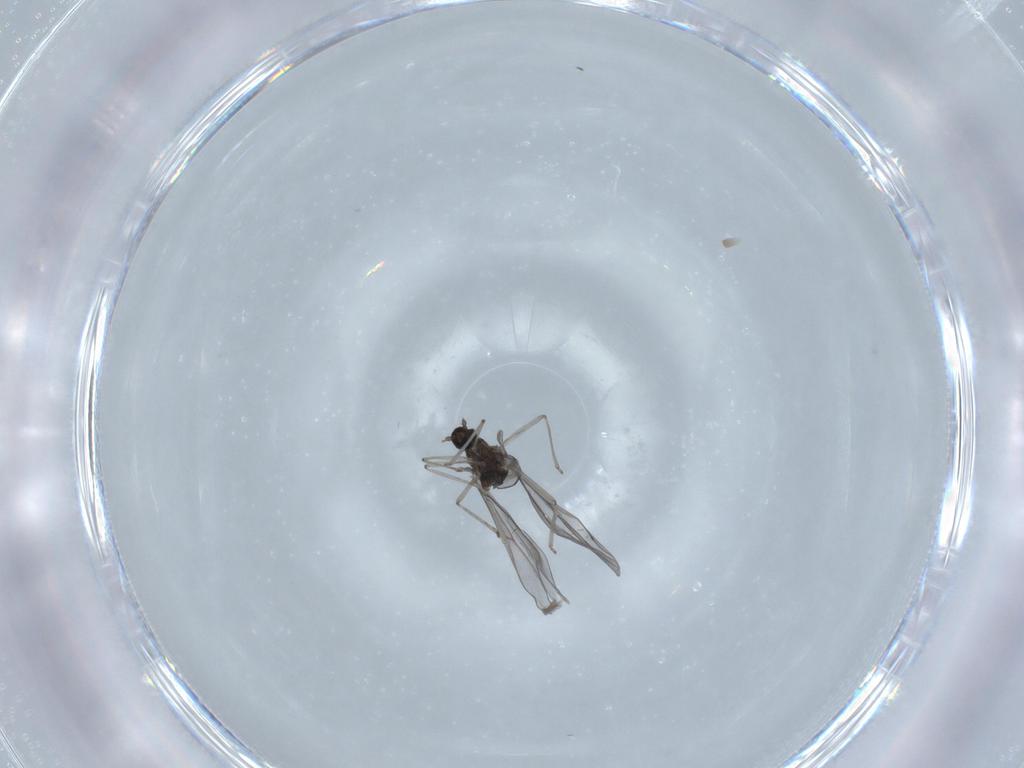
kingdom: Animalia
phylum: Arthropoda
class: Insecta
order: Diptera
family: Cecidomyiidae
